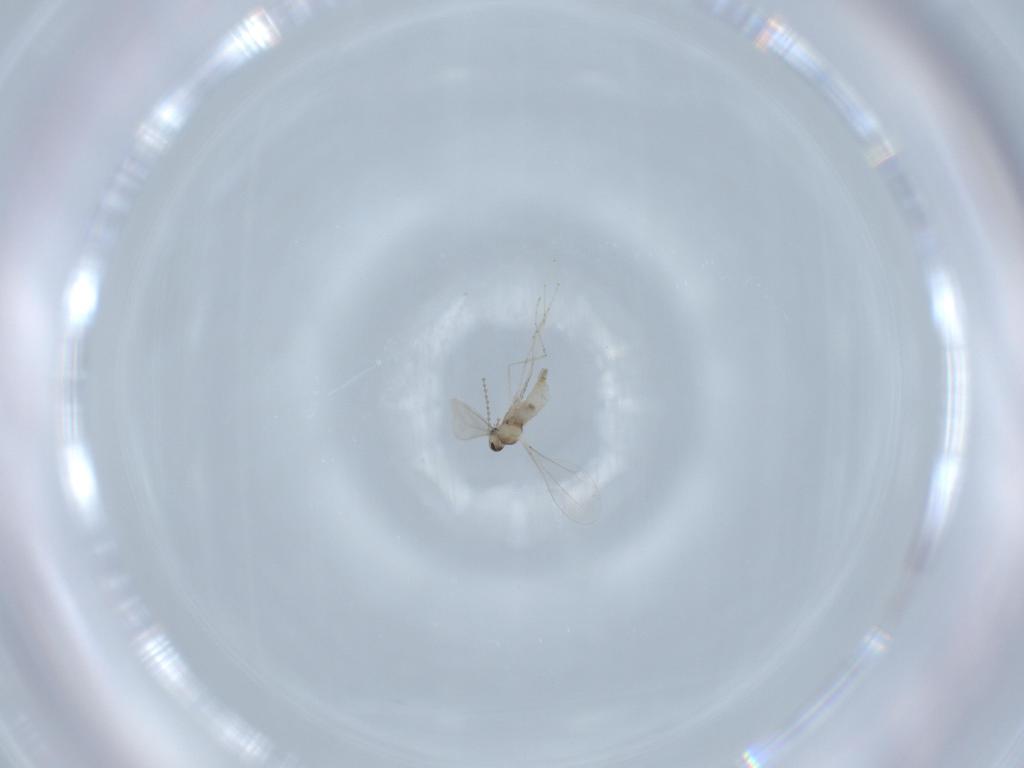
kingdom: Animalia
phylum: Arthropoda
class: Insecta
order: Diptera
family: Cecidomyiidae
